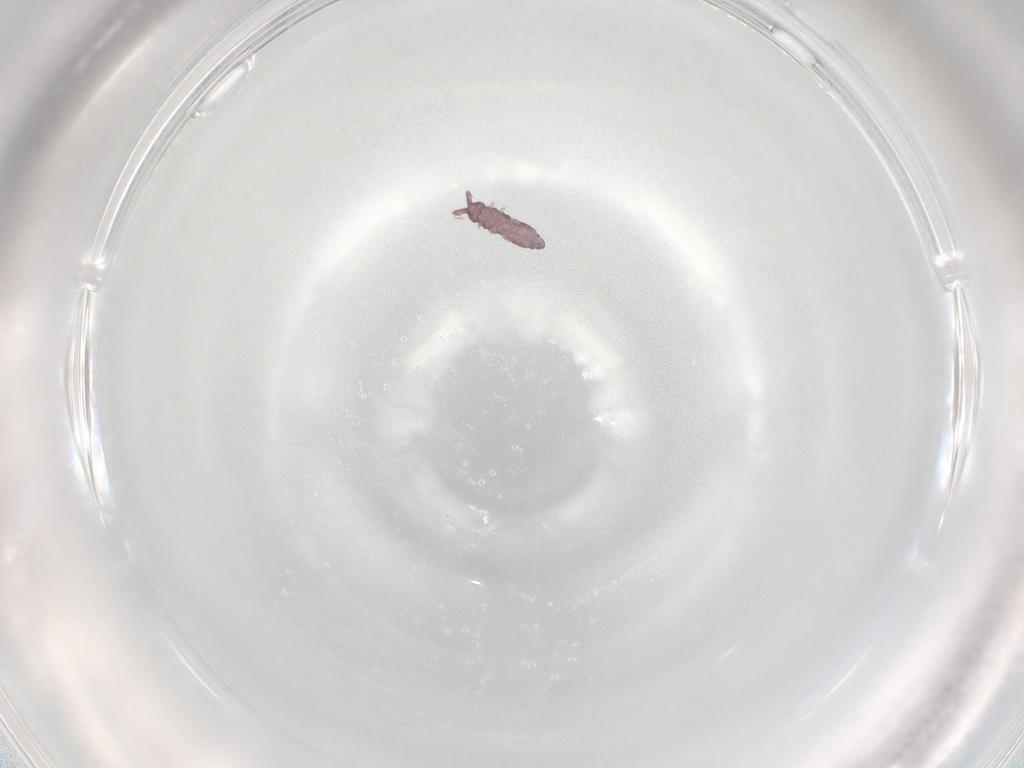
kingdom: Animalia
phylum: Arthropoda
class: Collembola
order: Poduromorpha
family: Hypogastruridae
